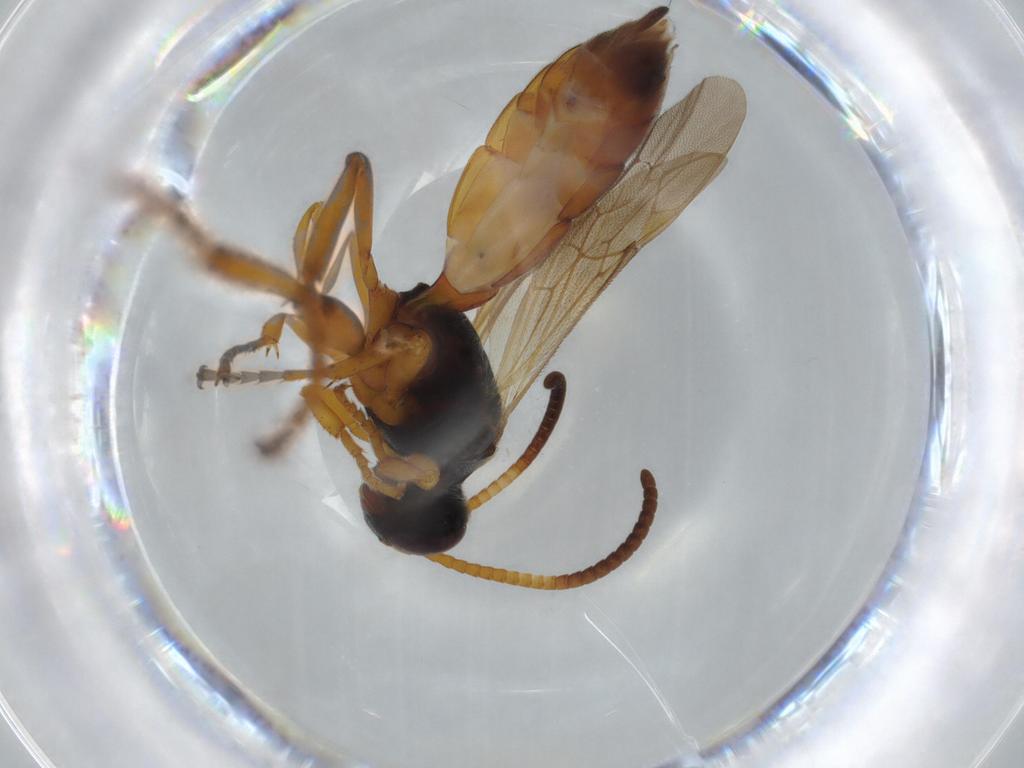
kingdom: Animalia
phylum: Arthropoda
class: Insecta
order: Hymenoptera
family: Ichneumonidae
